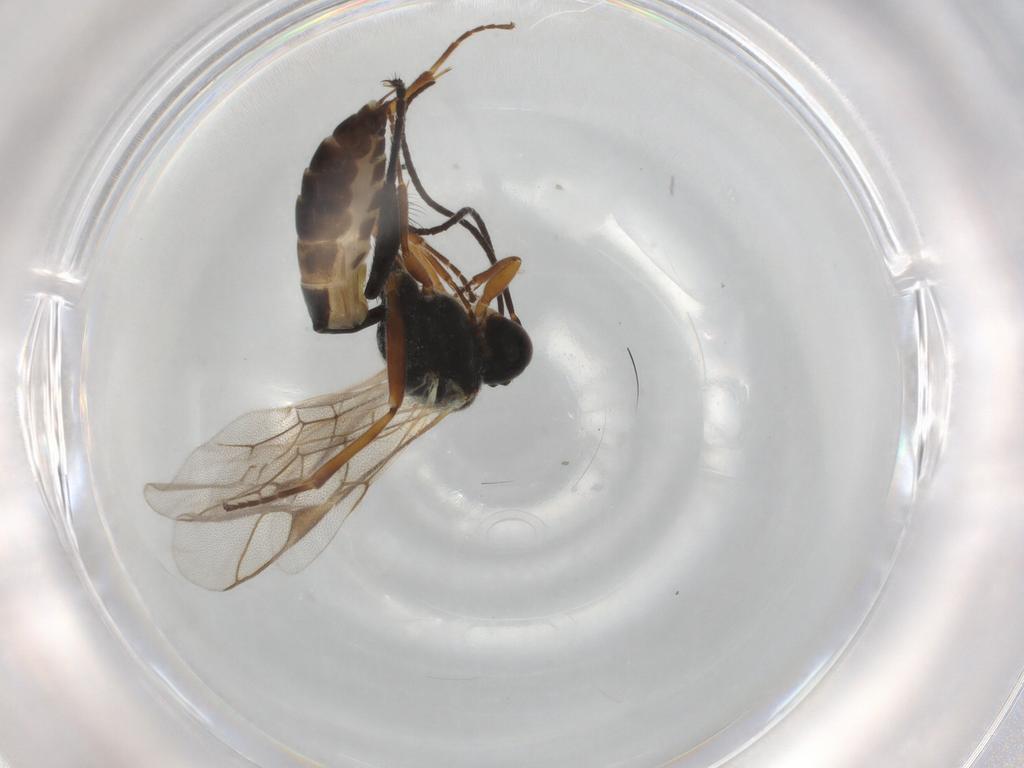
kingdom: Animalia
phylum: Arthropoda
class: Insecta
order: Hymenoptera
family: Ichneumonidae
